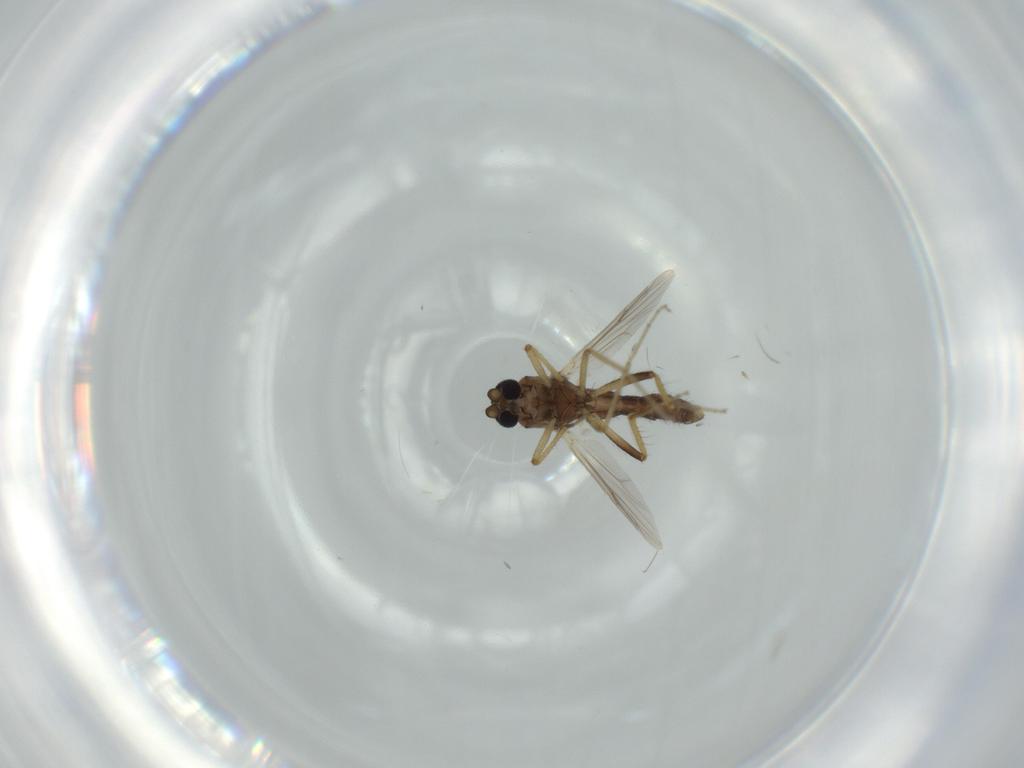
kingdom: Animalia
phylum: Arthropoda
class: Insecta
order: Diptera
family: Ceratopogonidae
